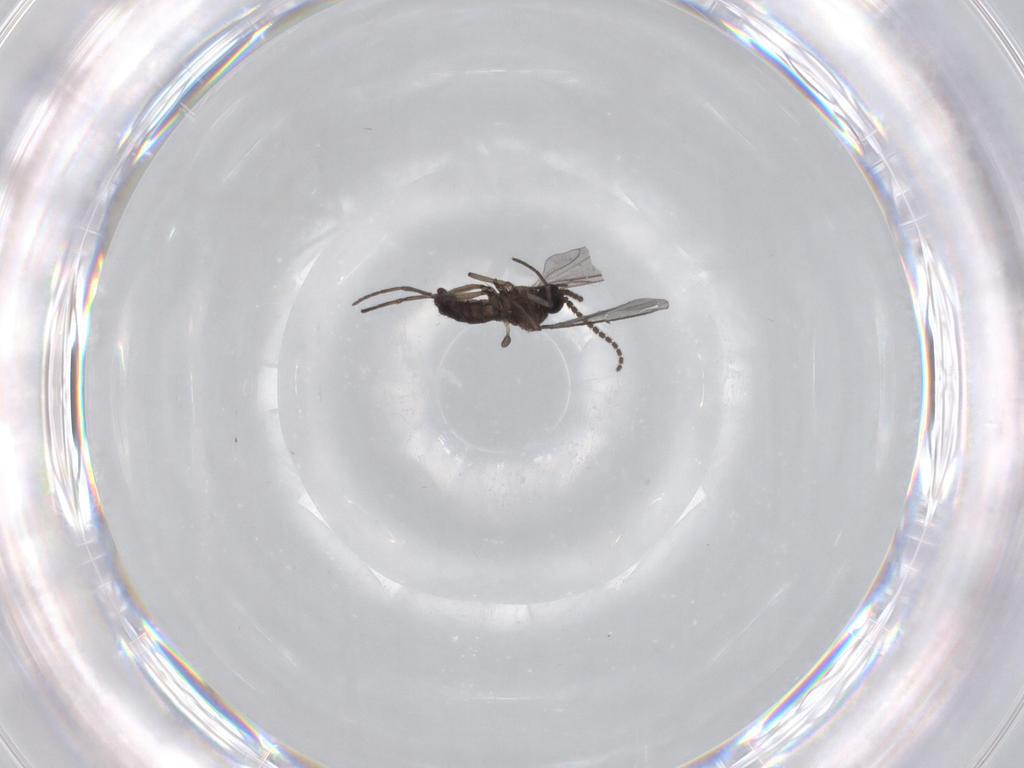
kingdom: Animalia
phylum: Arthropoda
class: Insecta
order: Diptera
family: Sciaridae
